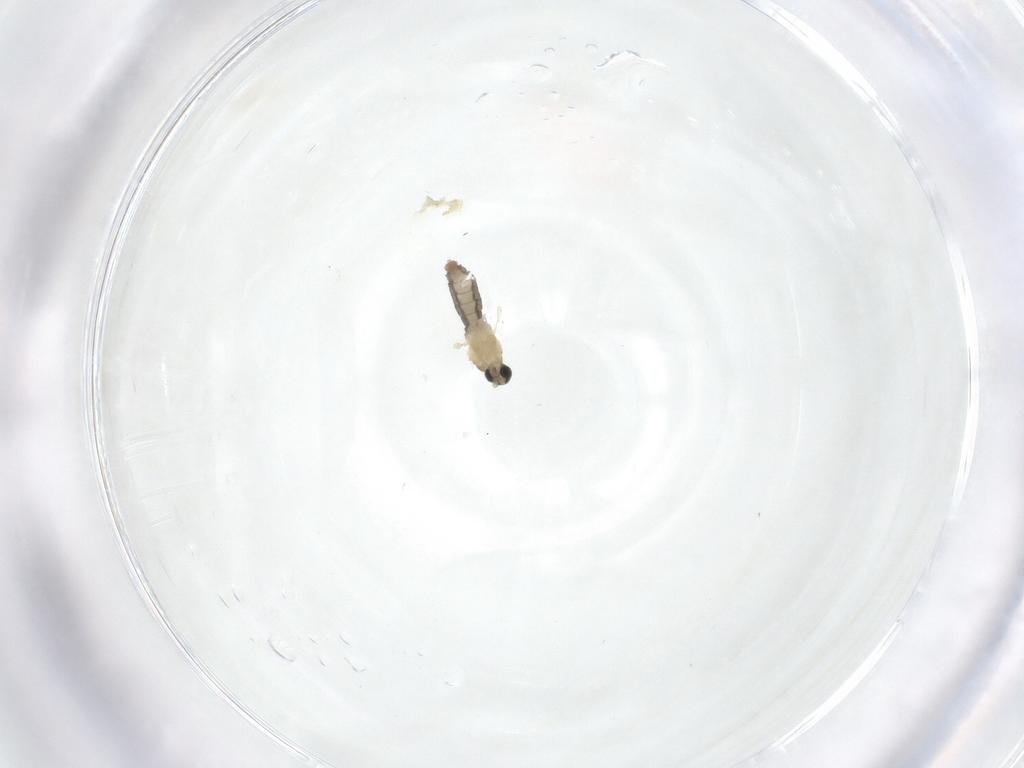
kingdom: Animalia
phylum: Arthropoda
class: Insecta
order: Diptera
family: Chironomidae
